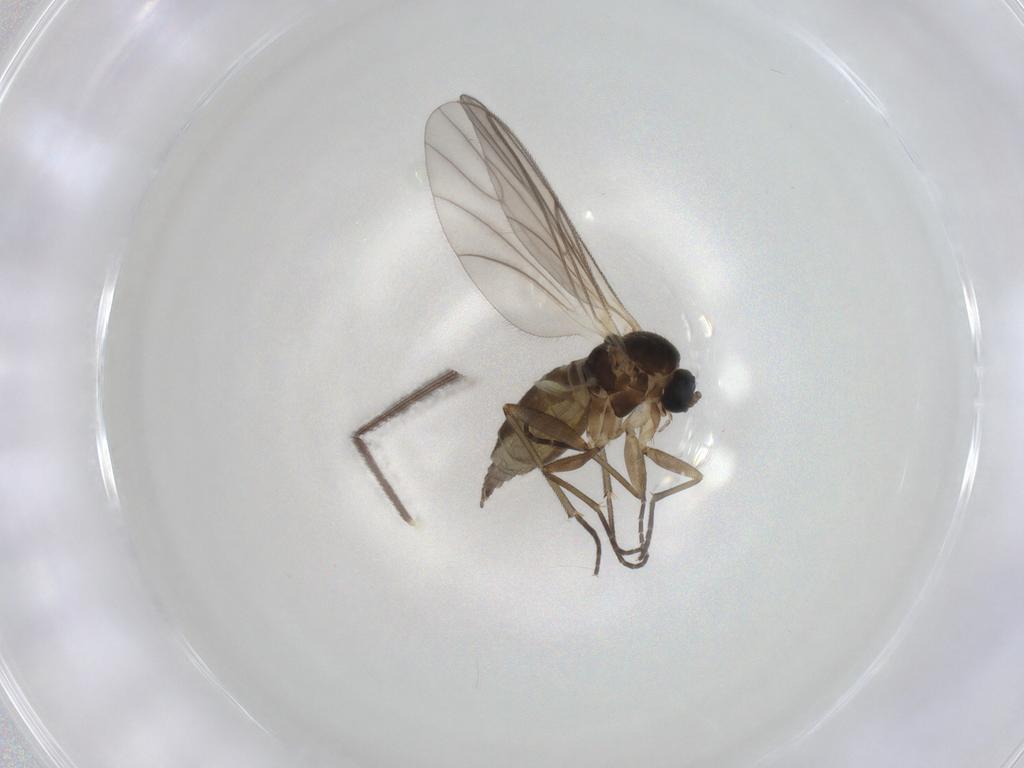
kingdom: Animalia
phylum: Arthropoda
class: Insecta
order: Diptera
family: Chironomidae
